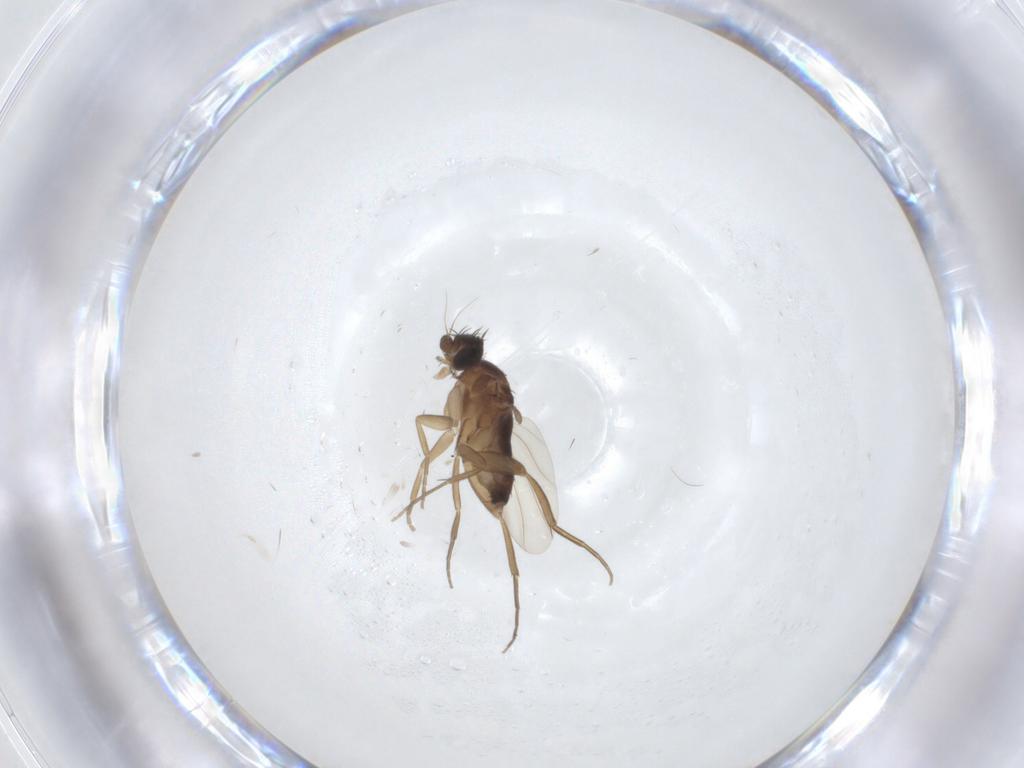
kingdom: Animalia
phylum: Arthropoda
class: Insecta
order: Diptera
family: Phoridae
